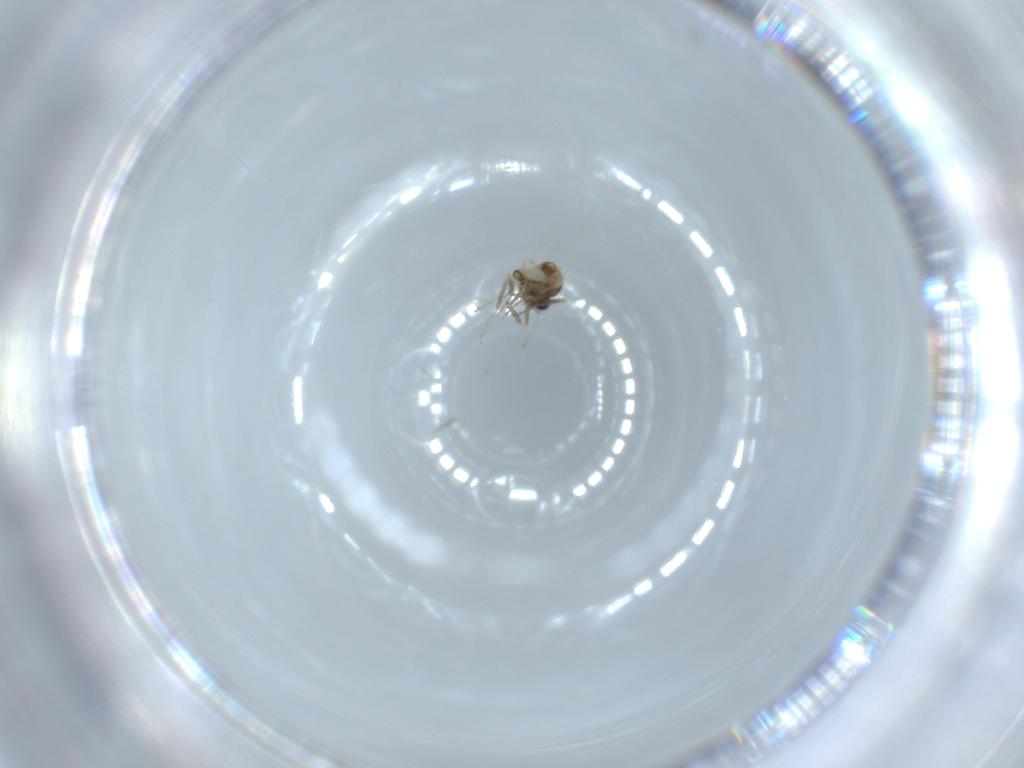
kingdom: Animalia
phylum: Arthropoda
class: Insecta
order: Diptera
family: Ceratopogonidae
